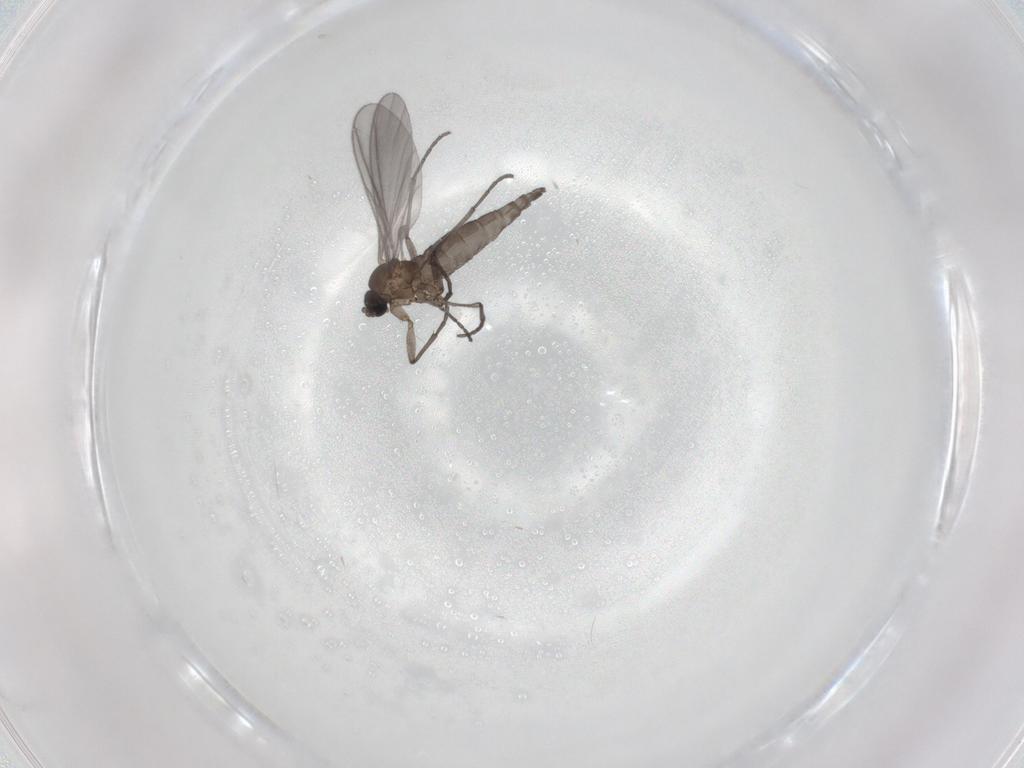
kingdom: Animalia
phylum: Arthropoda
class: Insecta
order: Diptera
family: Sciaridae
